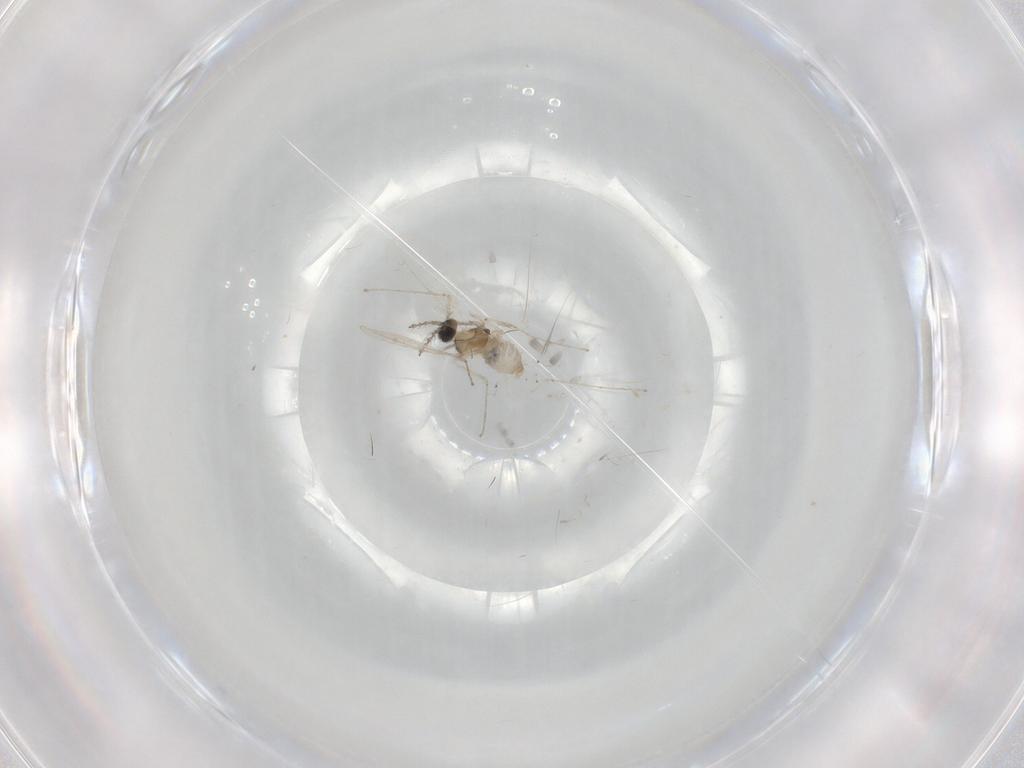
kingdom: Animalia
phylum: Arthropoda
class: Insecta
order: Diptera
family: Cecidomyiidae
